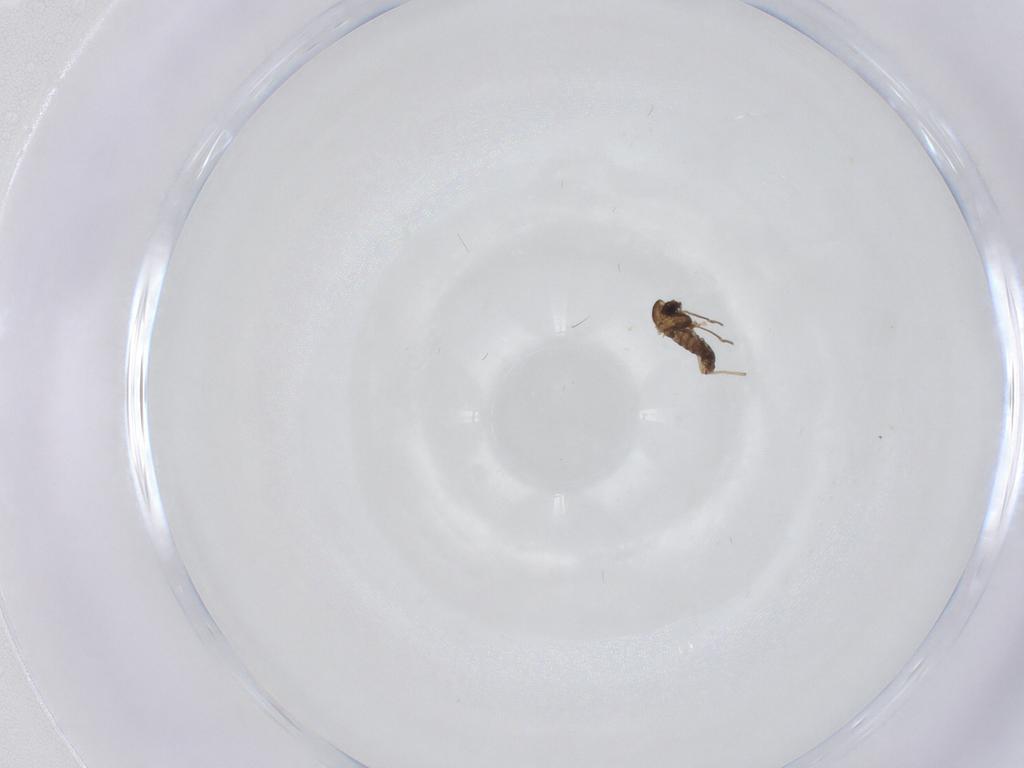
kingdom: Animalia
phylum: Arthropoda
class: Insecta
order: Diptera
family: Chironomidae
